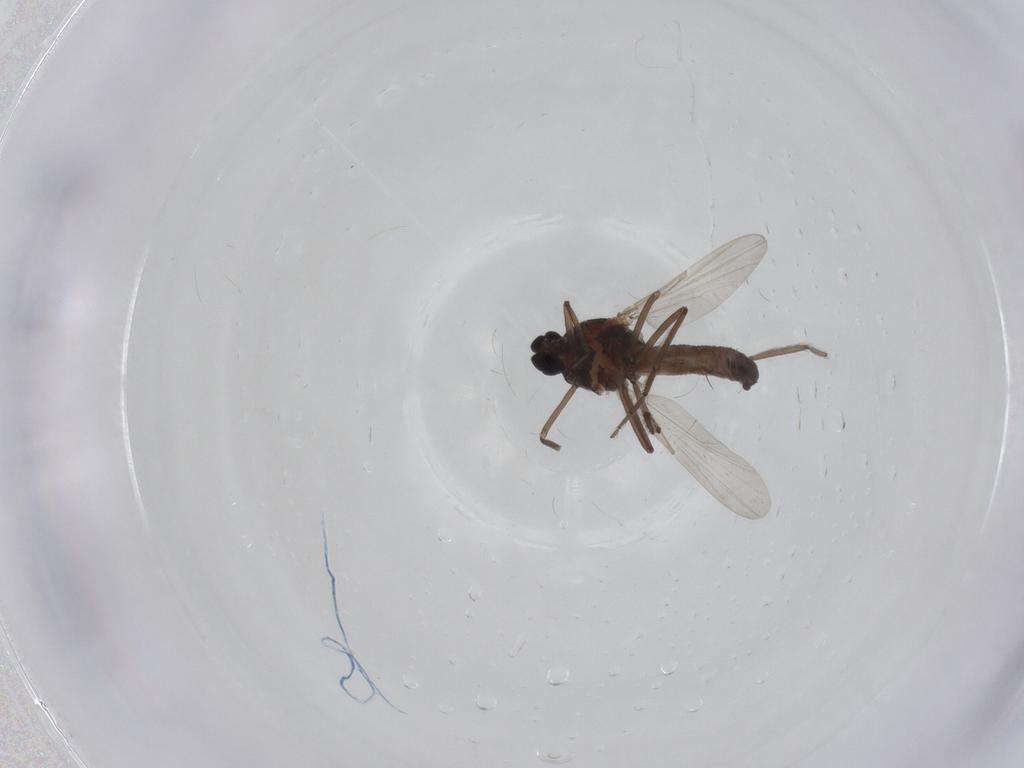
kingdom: Animalia
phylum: Arthropoda
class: Insecta
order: Diptera
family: Ceratopogonidae
